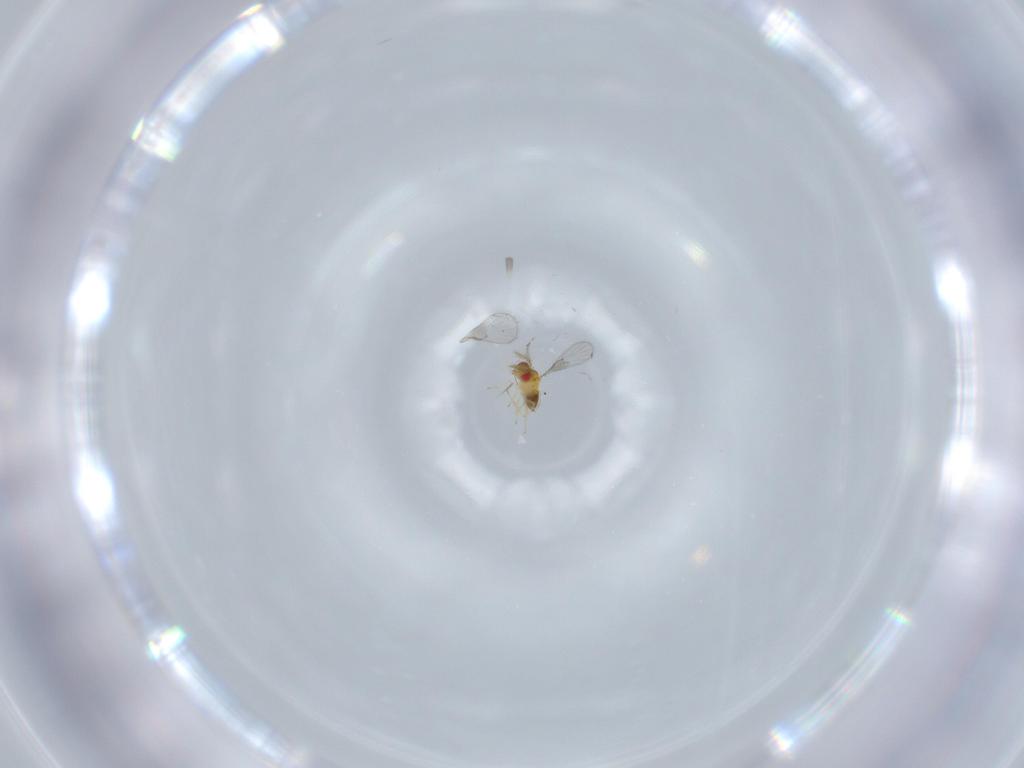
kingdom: Animalia
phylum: Arthropoda
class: Insecta
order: Hymenoptera
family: Trichogrammatidae
